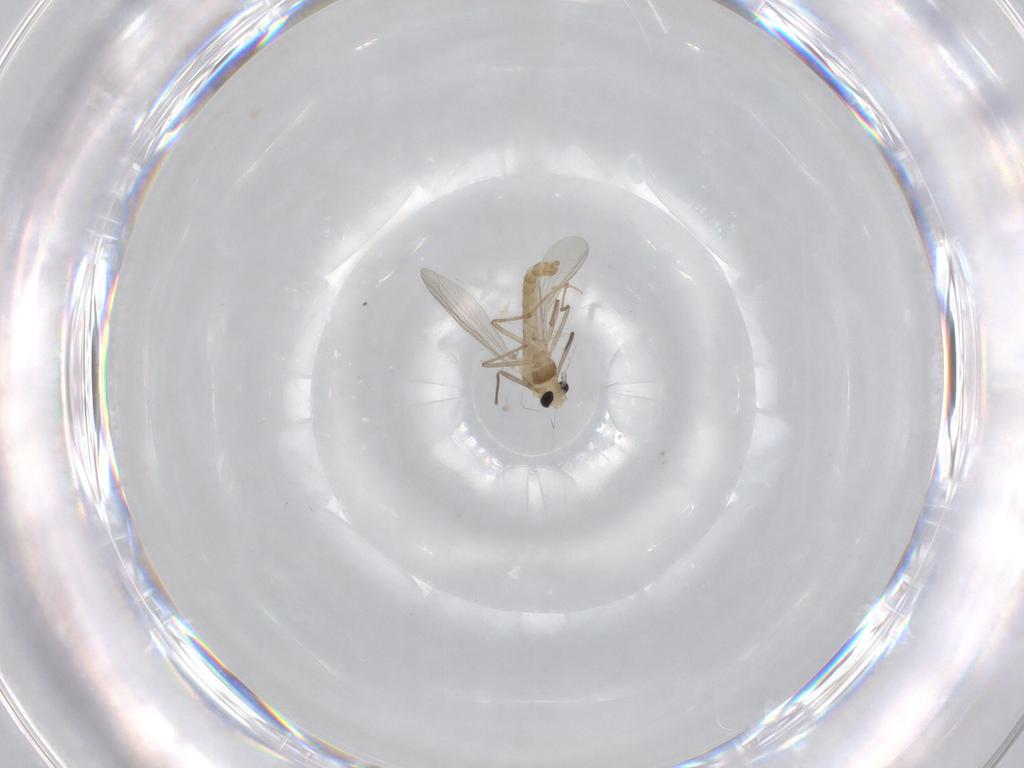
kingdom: Animalia
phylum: Arthropoda
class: Insecta
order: Diptera
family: Chironomidae
